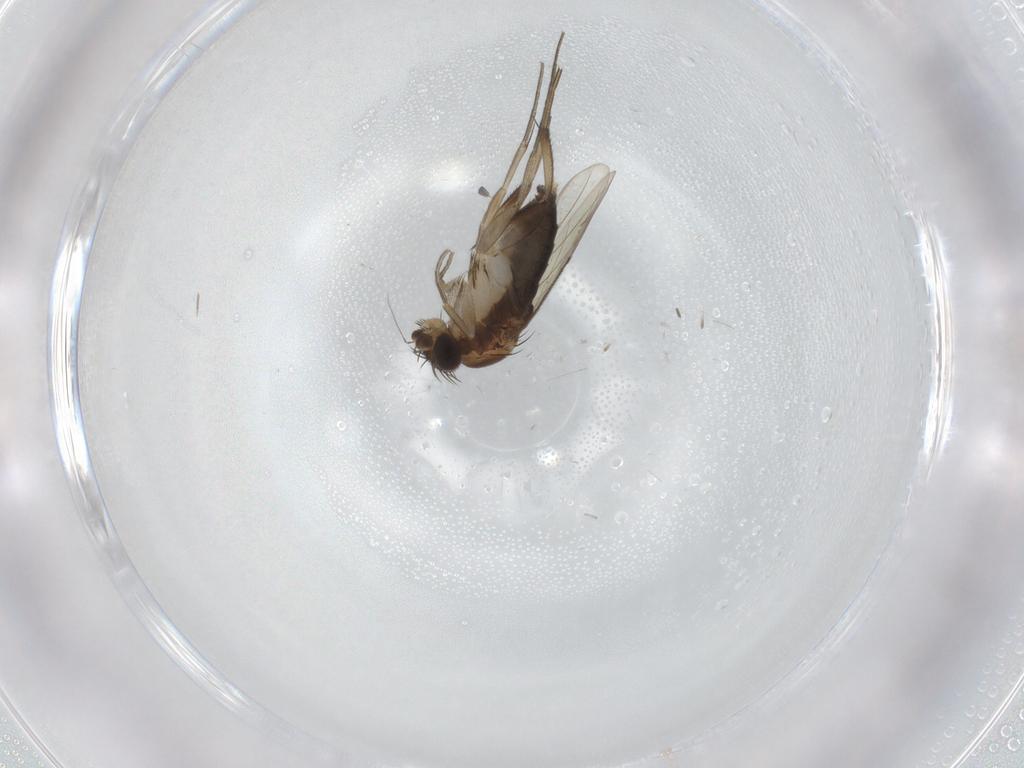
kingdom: Animalia
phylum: Arthropoda
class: Insecta
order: Diptera
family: Phoridae
